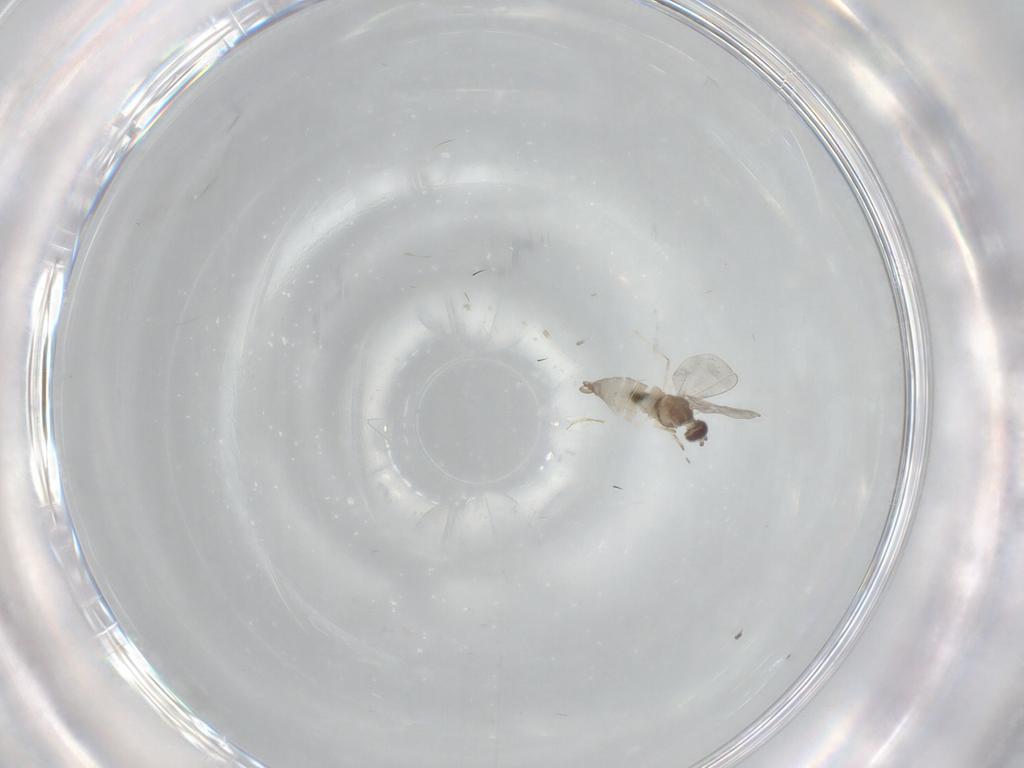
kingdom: Animalia
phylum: Arthropoda
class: Insecta
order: Diptera
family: Cecidomyiidae
